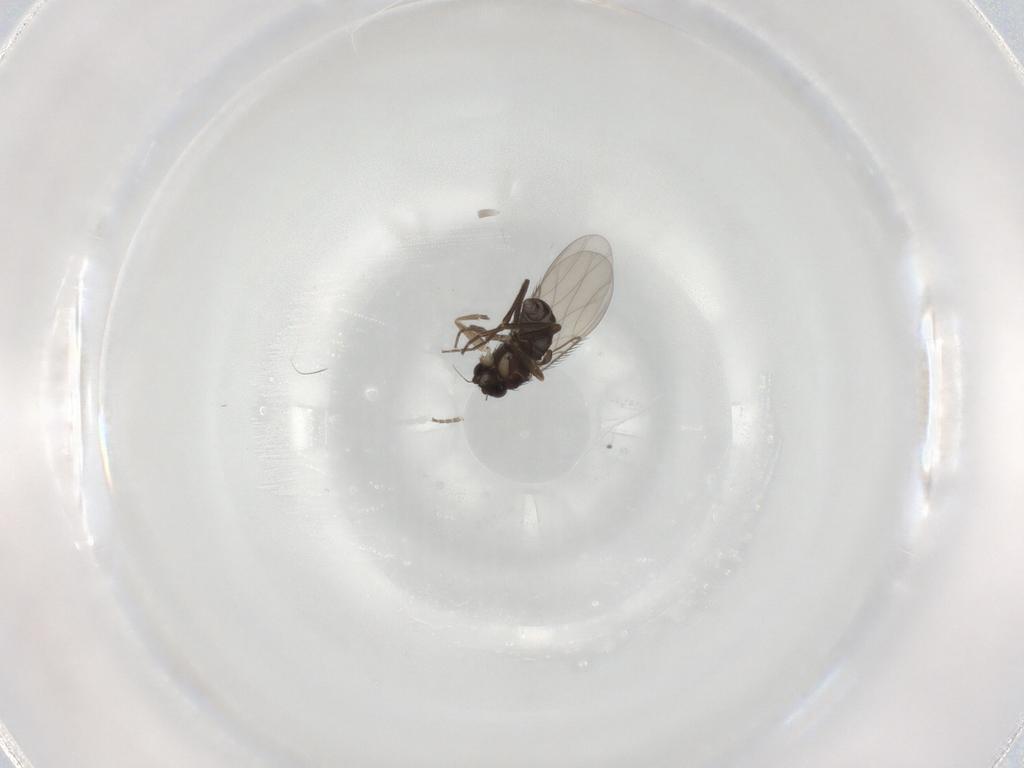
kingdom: Animalia
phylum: Arthropoda
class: Insecta
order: Diptera
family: Phoridae
